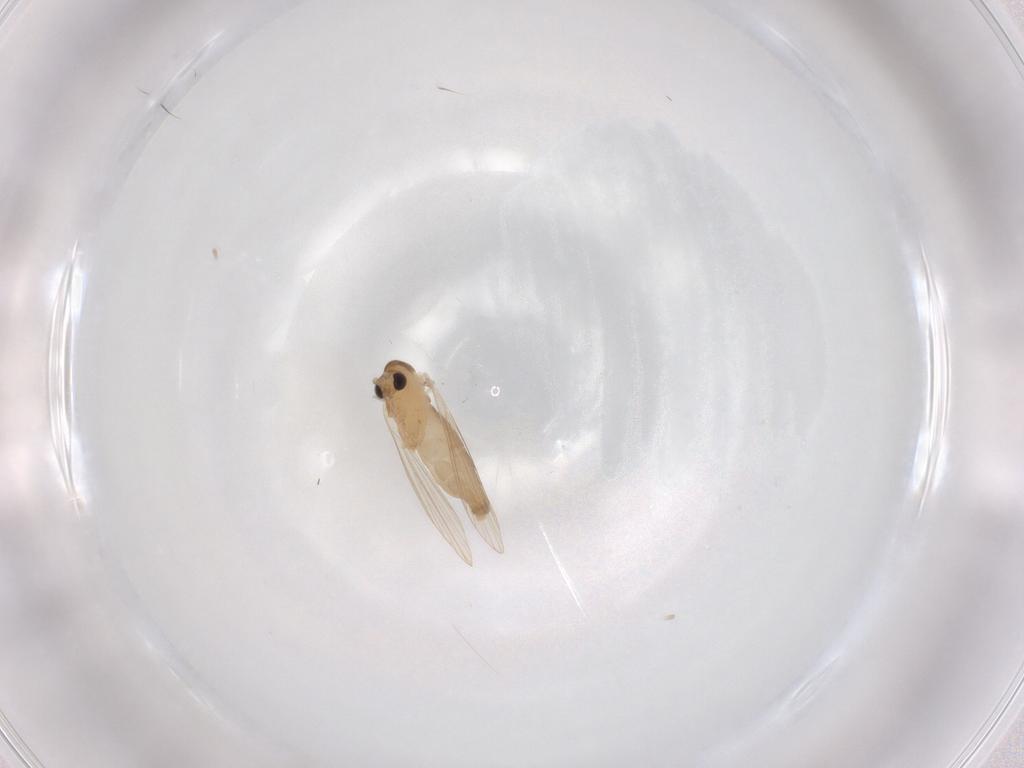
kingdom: Animalia
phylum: Arthropoda
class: Insecta
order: Diptera
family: Psychodidae
